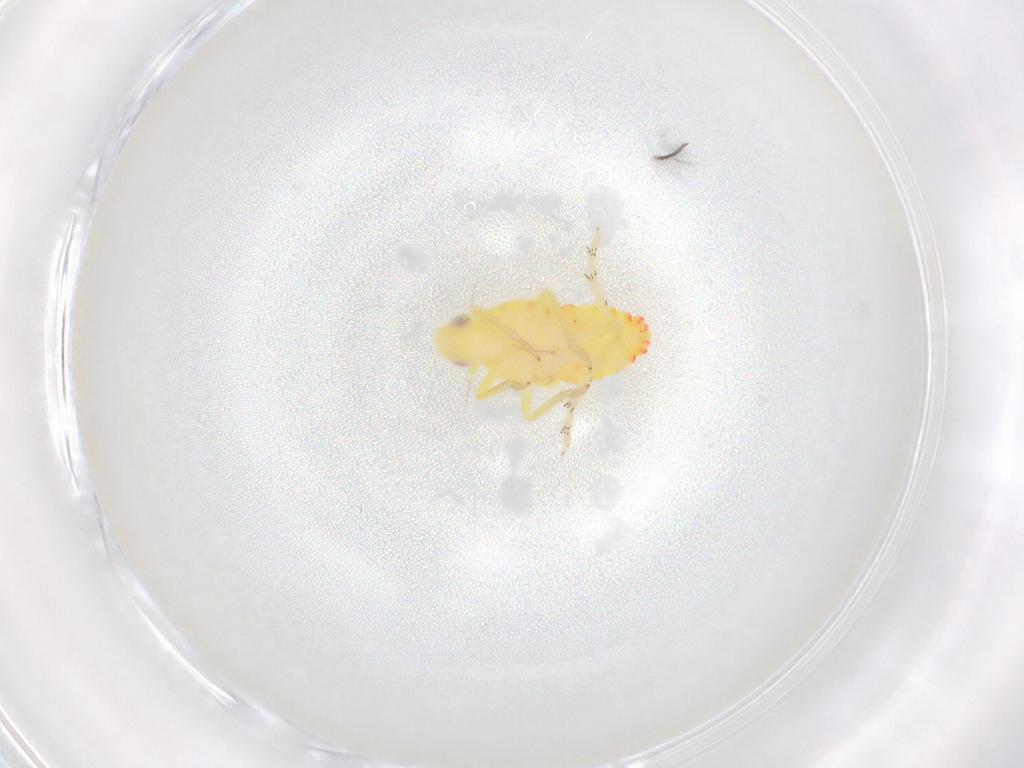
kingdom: Animalia
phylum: Arthropoda
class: Insecta
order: Hemiptera
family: Tropiduchidae
